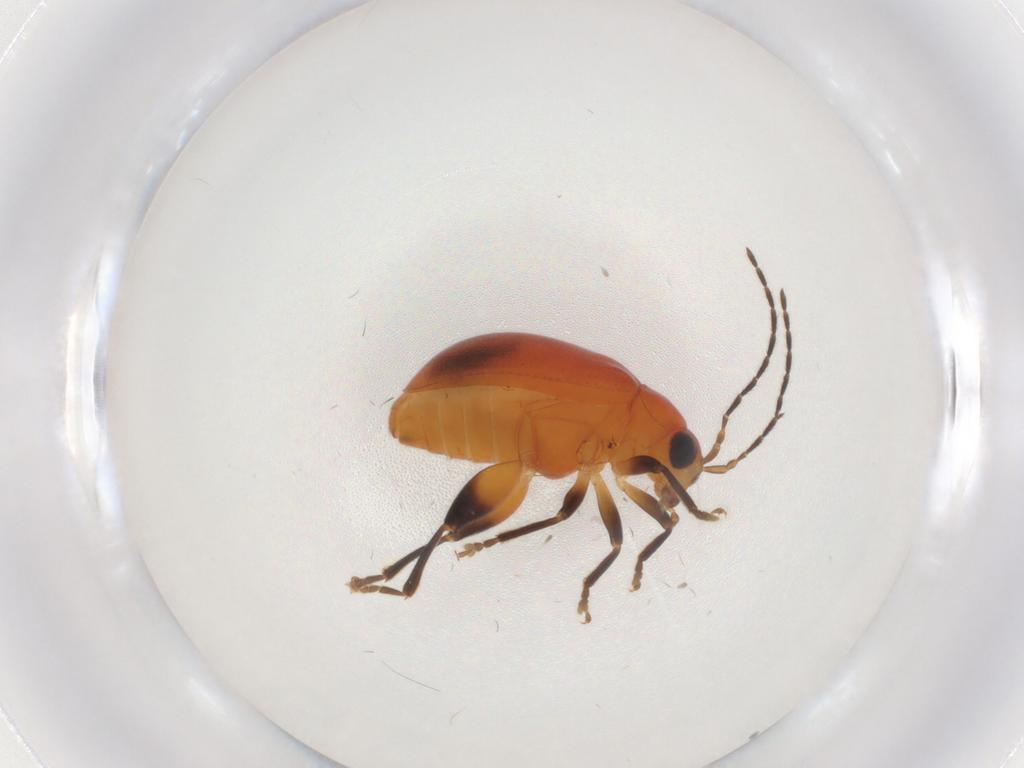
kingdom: Animalia
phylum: Arthropoda
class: Insecta
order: Coleoptera
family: Chrysomelidae
